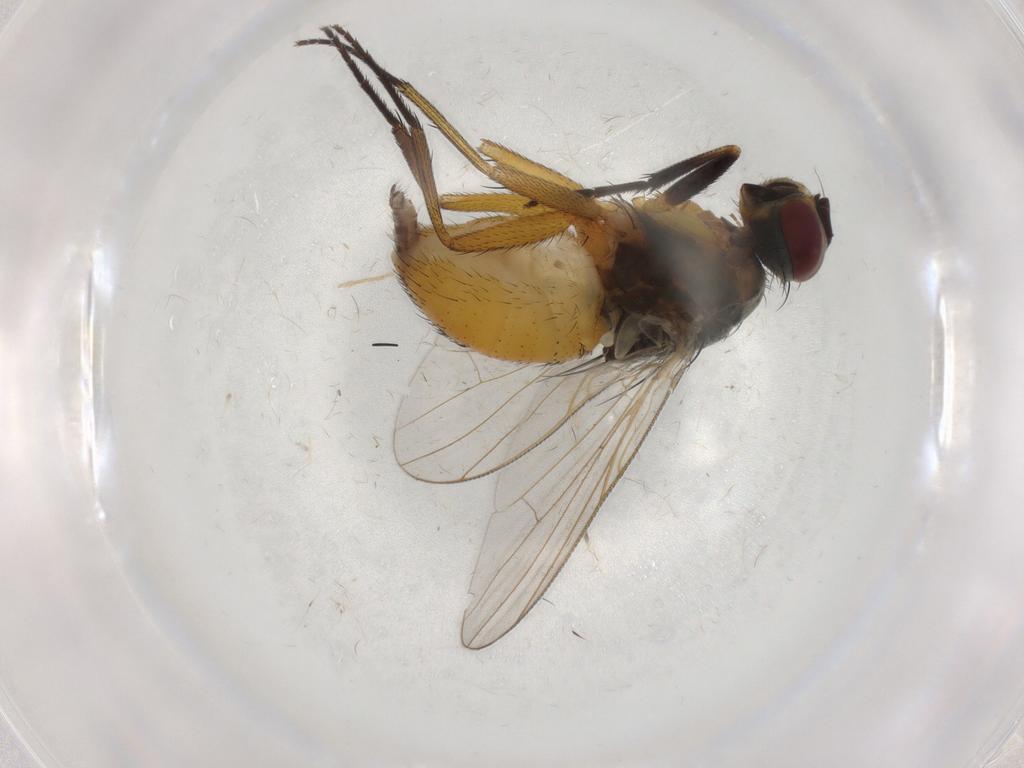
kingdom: Animalia
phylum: Arthropoda
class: Insecta
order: Diptera
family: Muscidae
